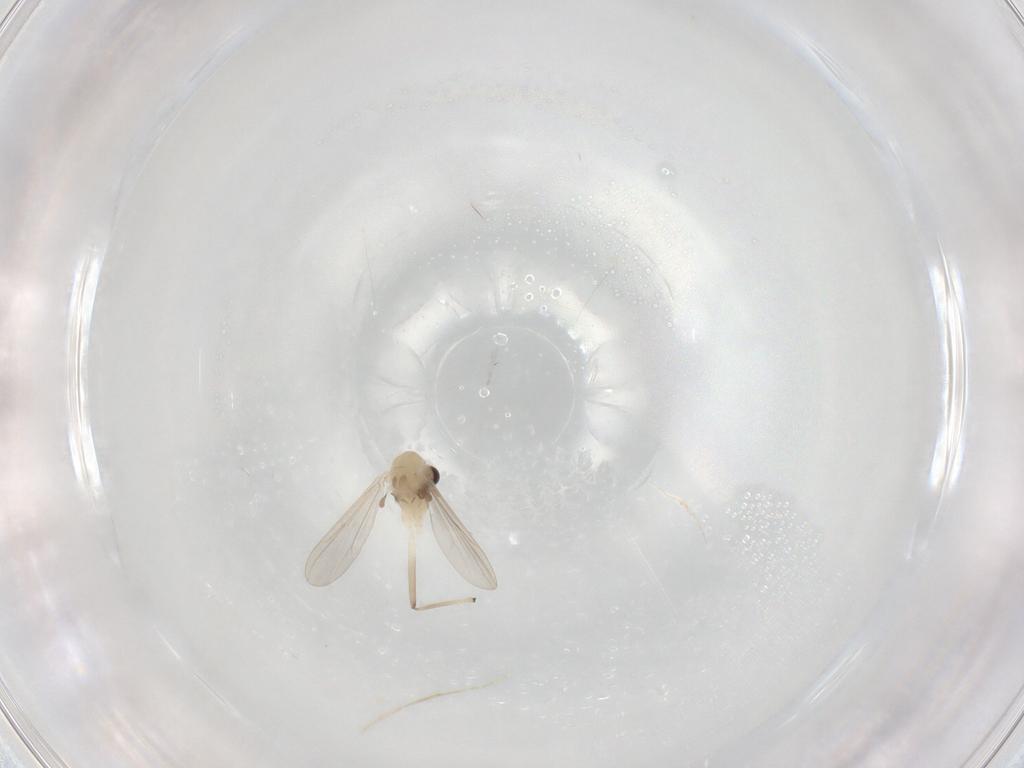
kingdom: Animalia
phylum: Arthropoda
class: Insecta
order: Diptera
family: Chironomidae
